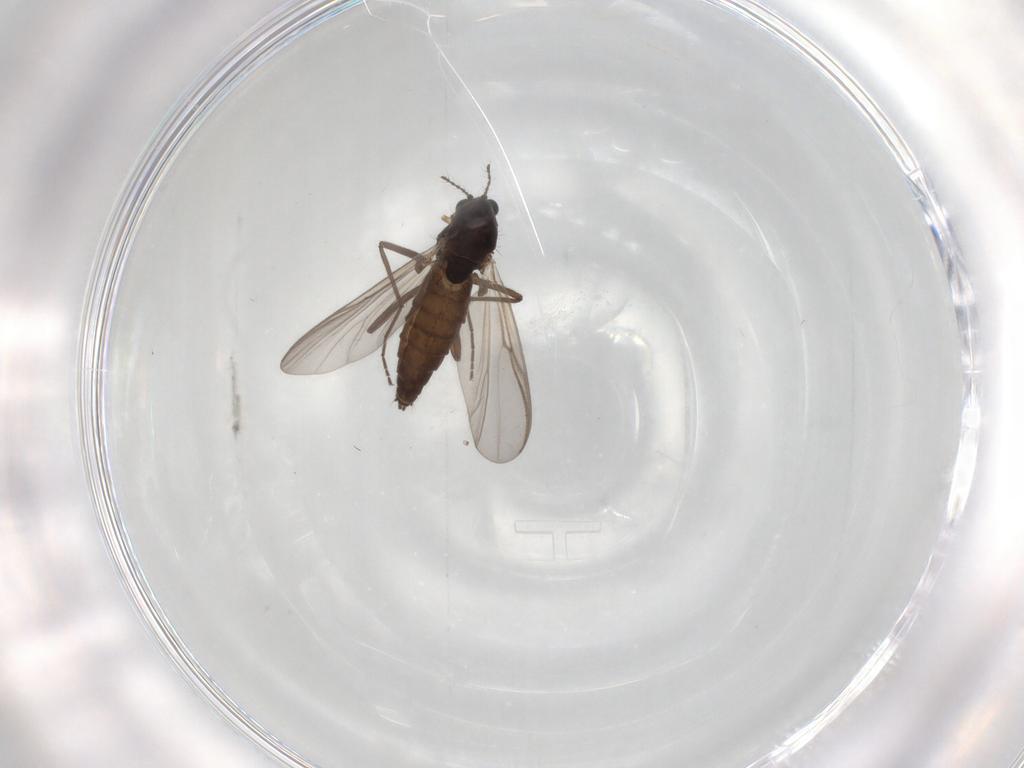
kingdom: Animalia
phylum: Arthropoda
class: Insecta
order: Diptera
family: Chironomidae
